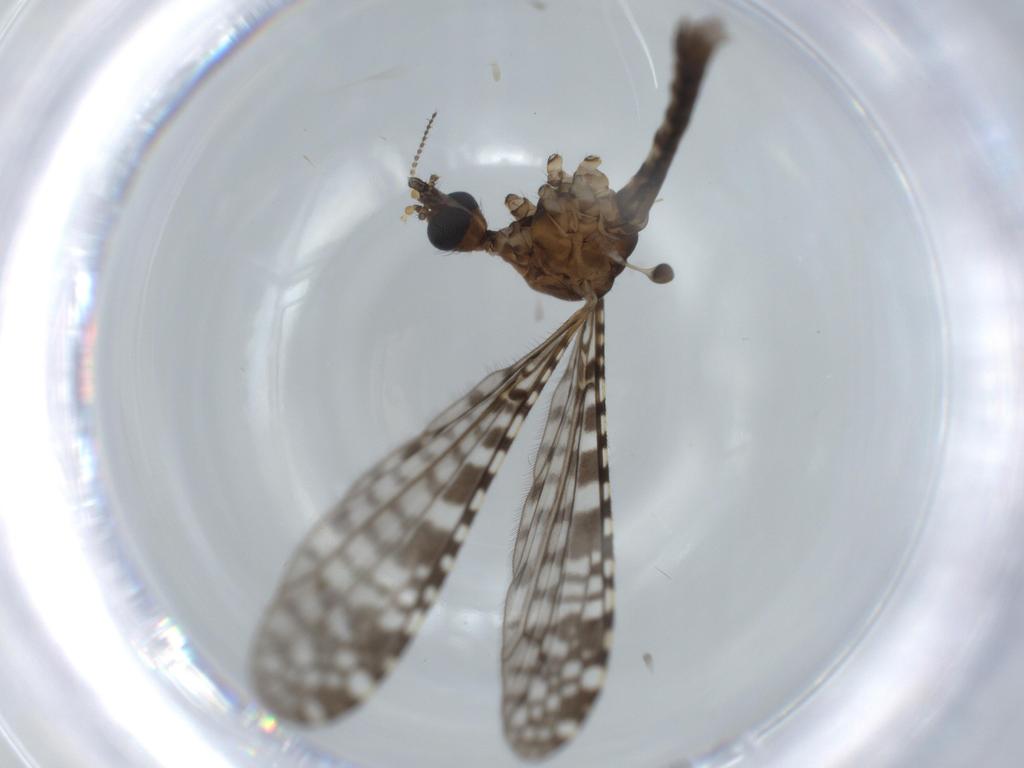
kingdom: Animalia
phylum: Arthropoda
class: Insecta
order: Diptera
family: Limoniidae
